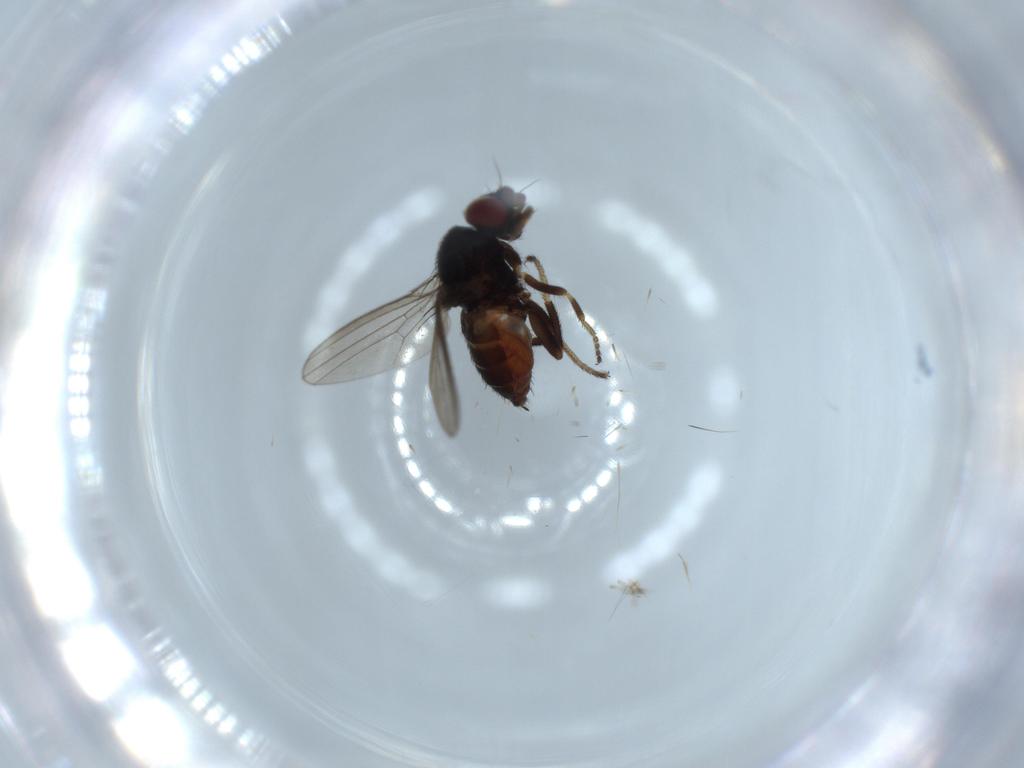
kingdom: Animalia
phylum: Arthropoda
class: Insecta
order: Diptera
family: Milichiidae
